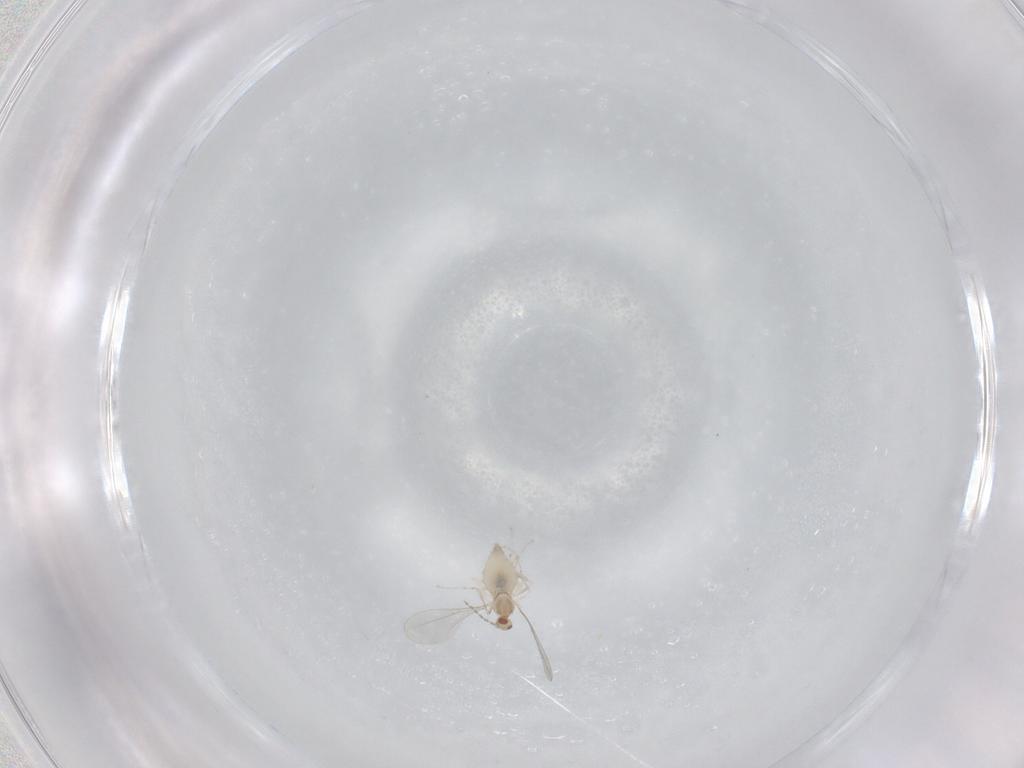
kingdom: Animalia
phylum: Arthropoda
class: Insecta
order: Diptera
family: Cecidomyiidae
